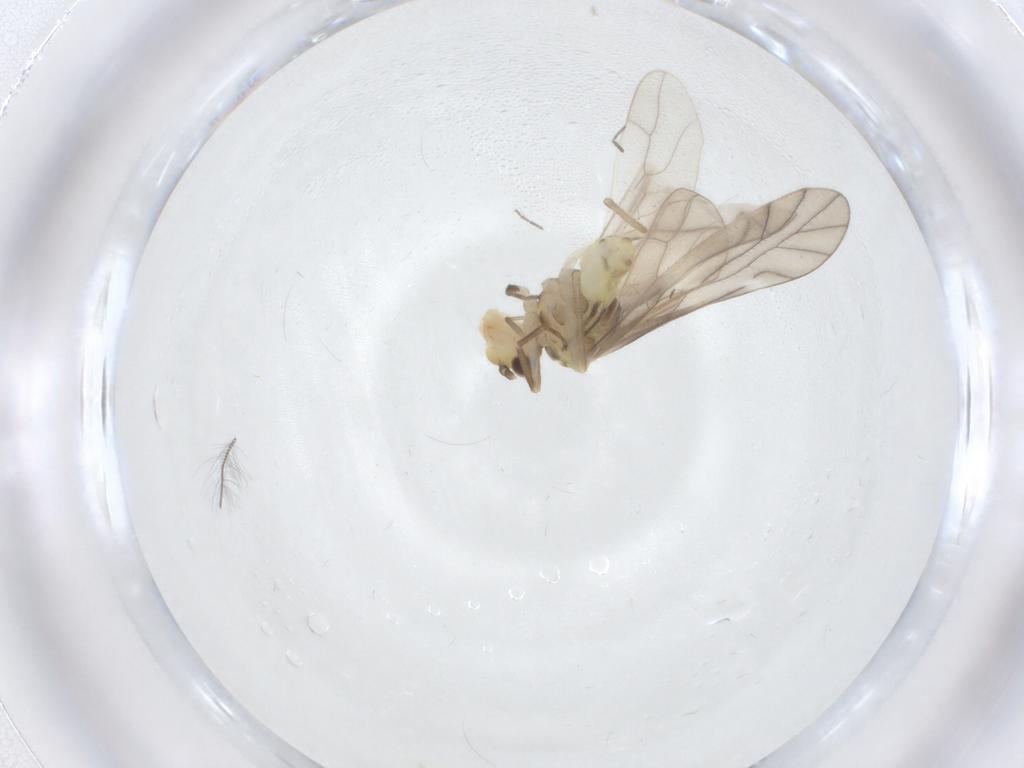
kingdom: Animalia
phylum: Arthropoda
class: Insecta
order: Psocodea
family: Caeciliusidae
